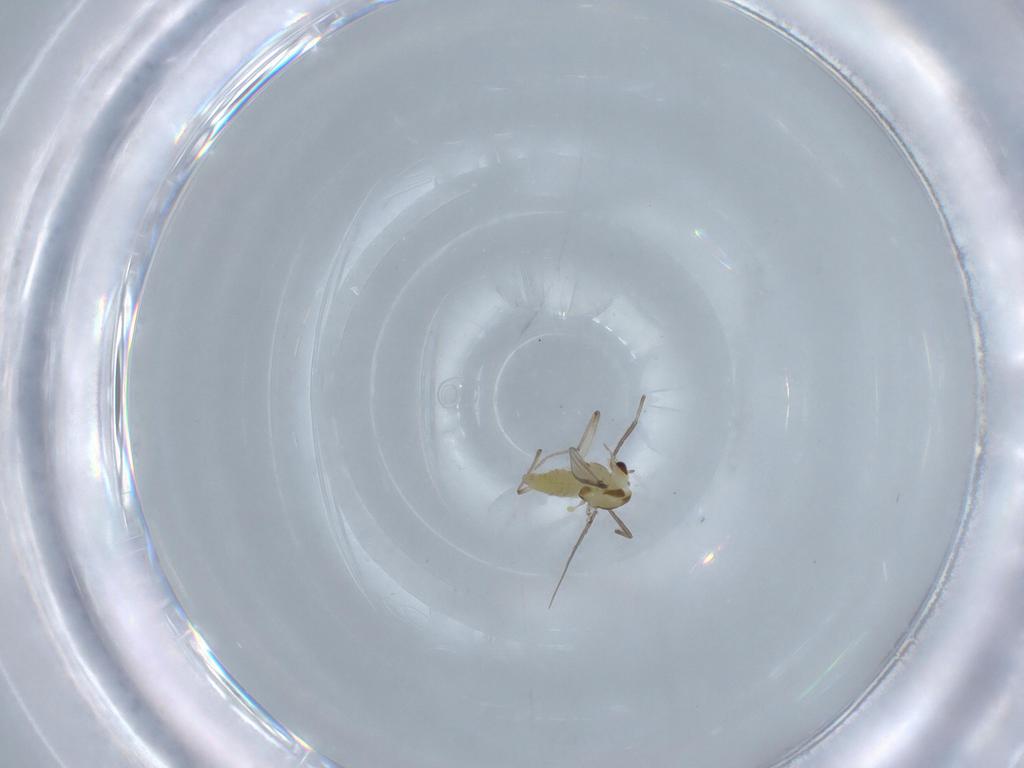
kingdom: Animalia
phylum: Arthropoda
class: Insecta
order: Diptera
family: Chironomidae
